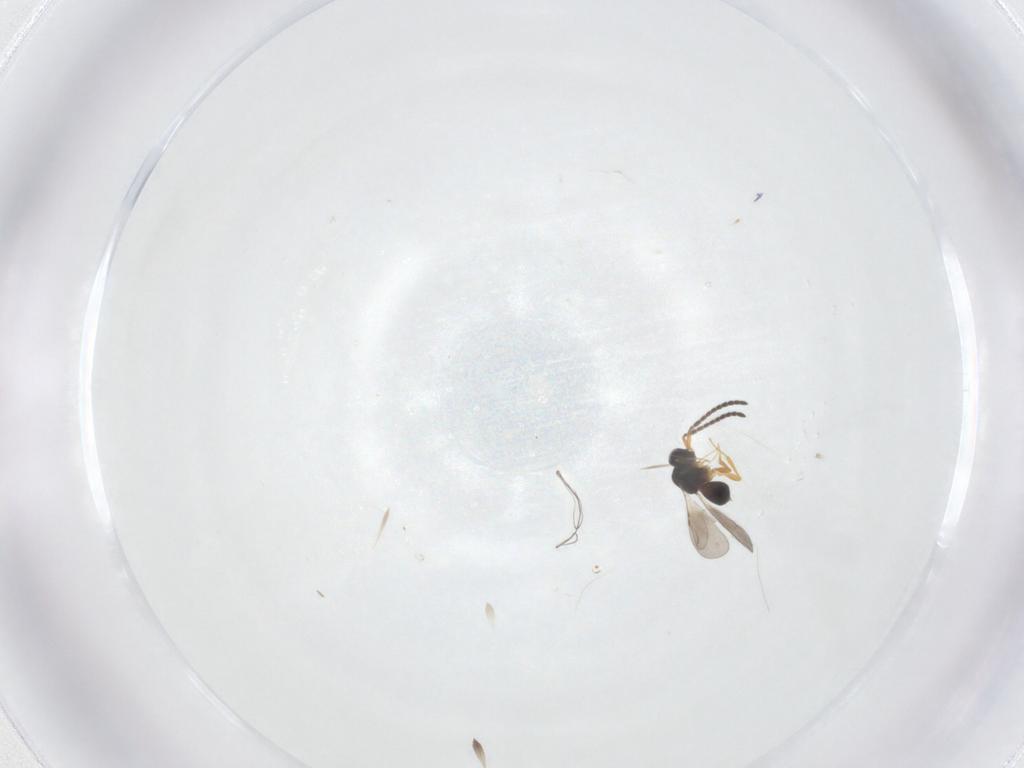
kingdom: Animalia
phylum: Arthropoda
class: Insecta
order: Hymenoptera
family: Ceraphronidae
